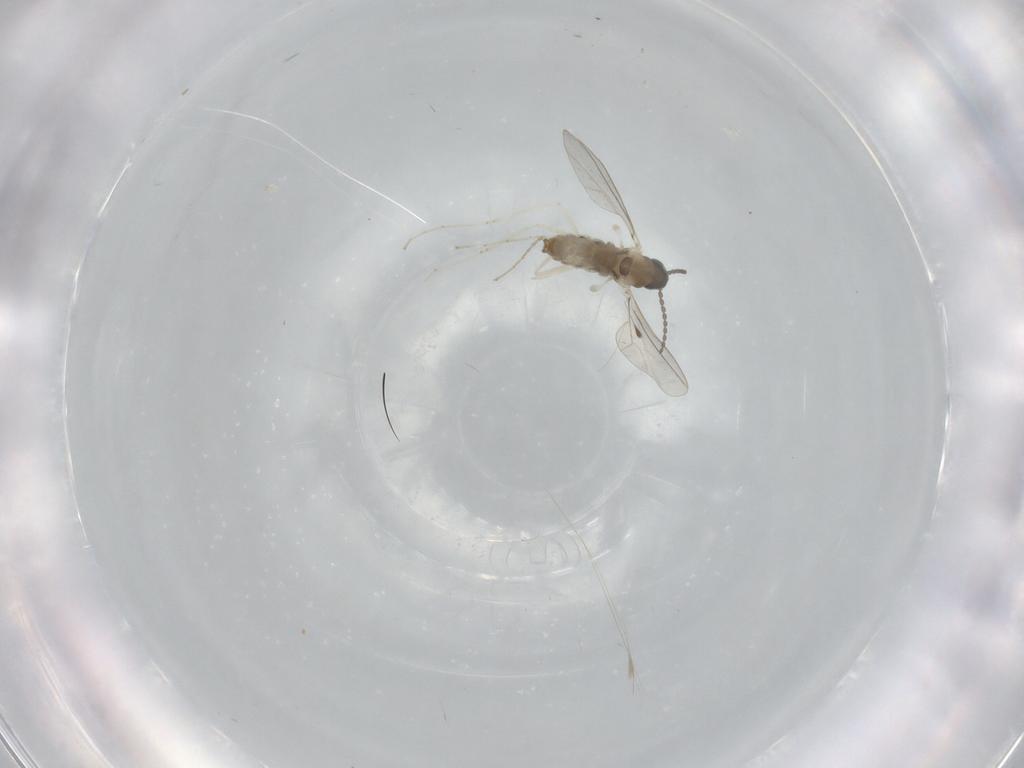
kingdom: Animalia
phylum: Arthropoda
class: Insecta
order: Diptera
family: Cecidomyiidae
